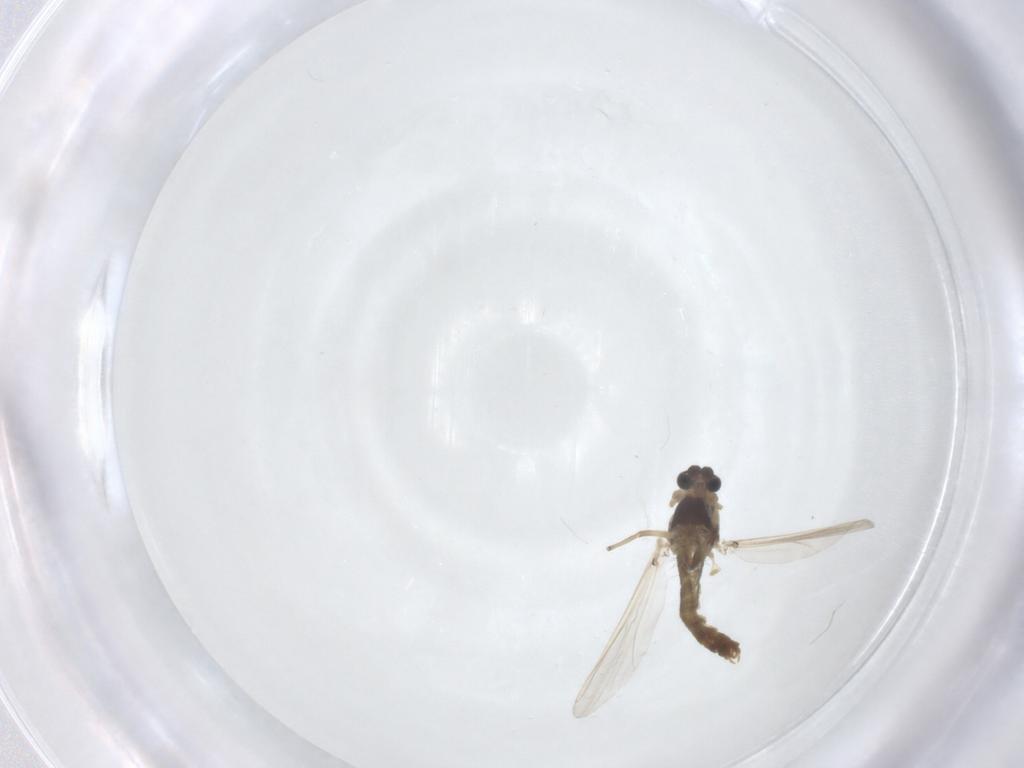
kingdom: Animalia
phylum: Arthropoda
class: Insecta
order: Diptera
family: Chironomidae
